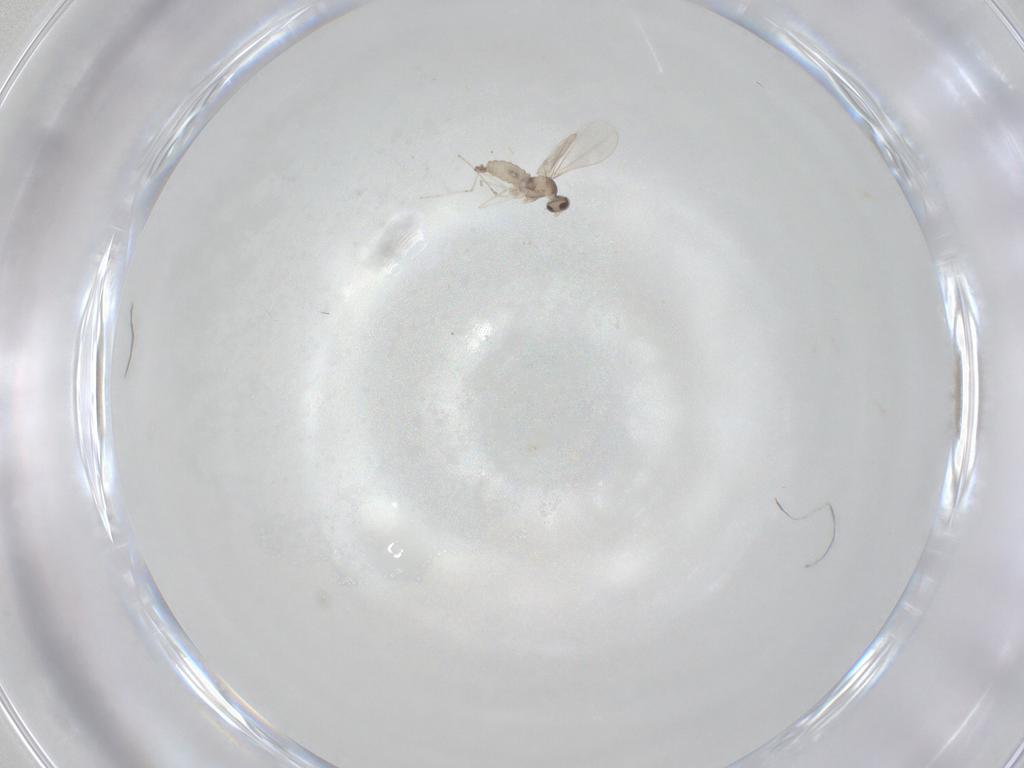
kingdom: Animalia
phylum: Arthropoda
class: Insecta
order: Diptera
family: Cecidomyiidae
